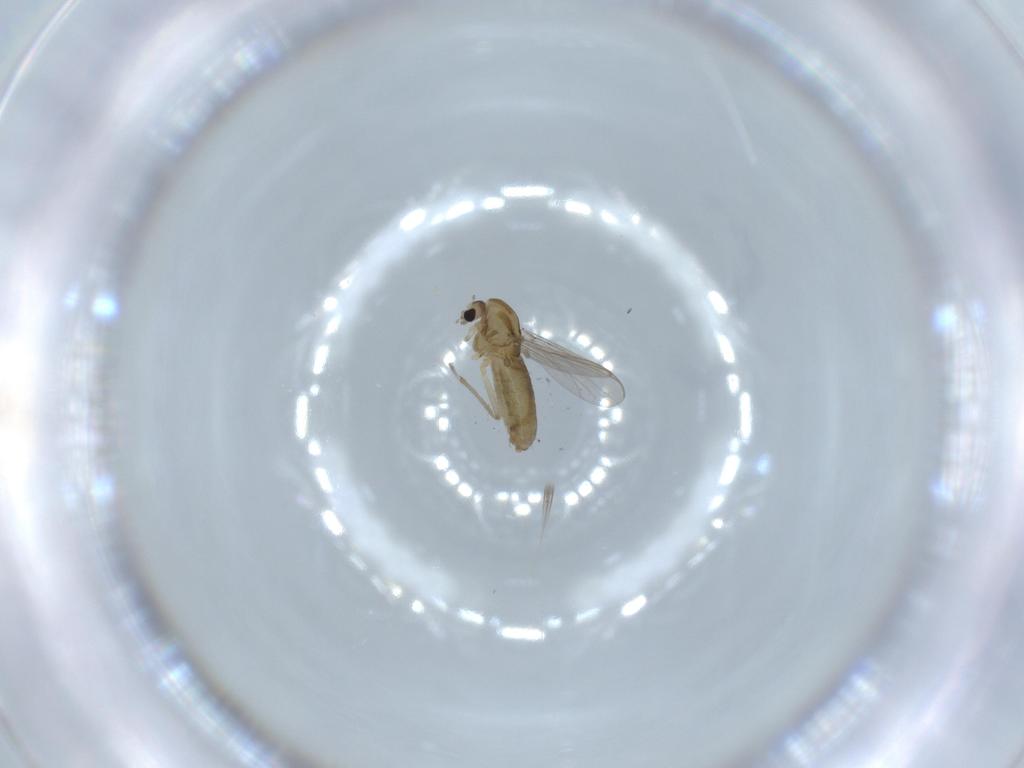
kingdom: Animalia
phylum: Arthropoda
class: Insecta
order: Diptera
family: Chironomidae
